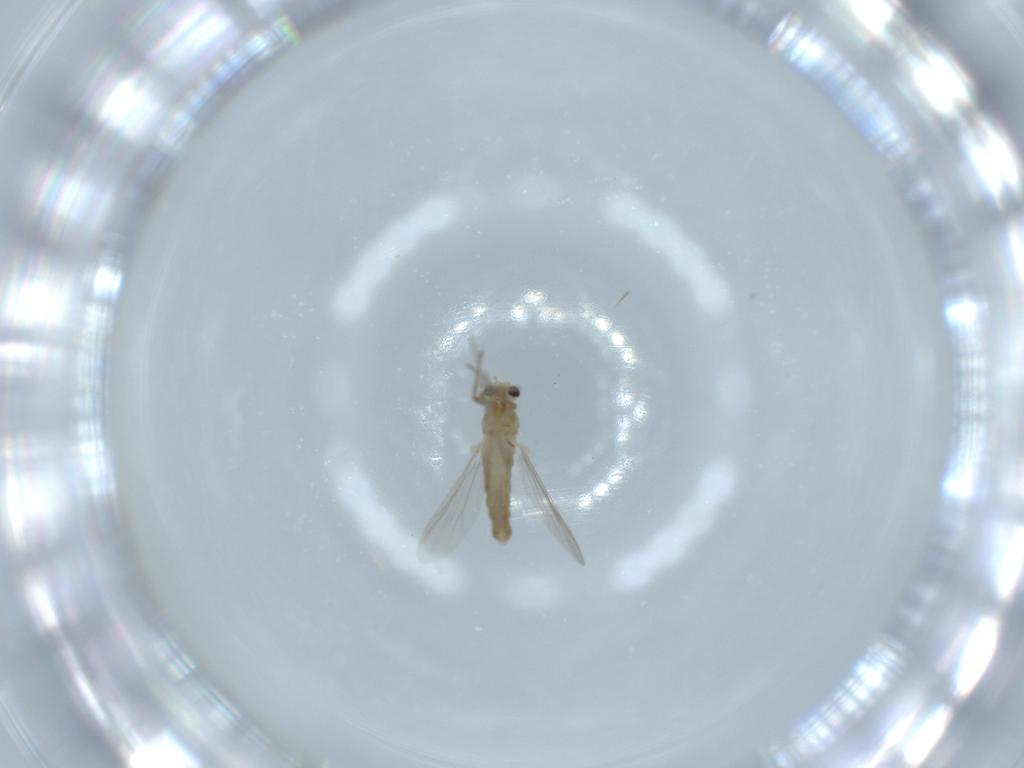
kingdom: Animalia
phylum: Arthropoda
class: Insecta
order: Diptera
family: Chironomidae
